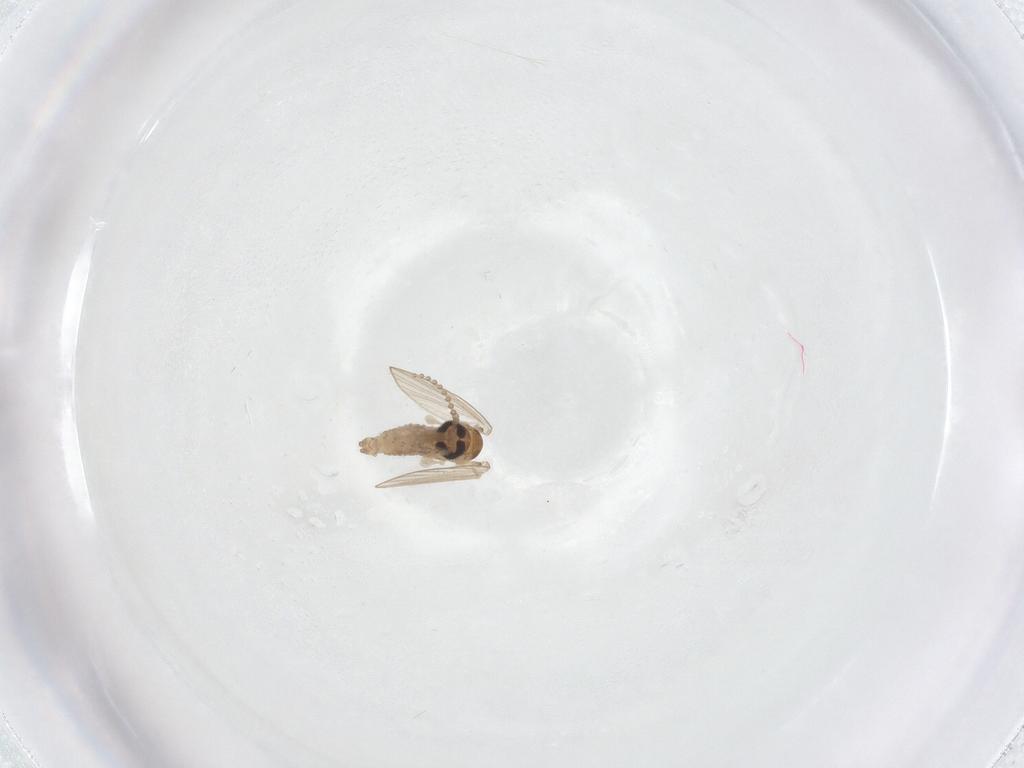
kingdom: Animalia
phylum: Arthropoda
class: Insecta
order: Diptera
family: Psychodidae
